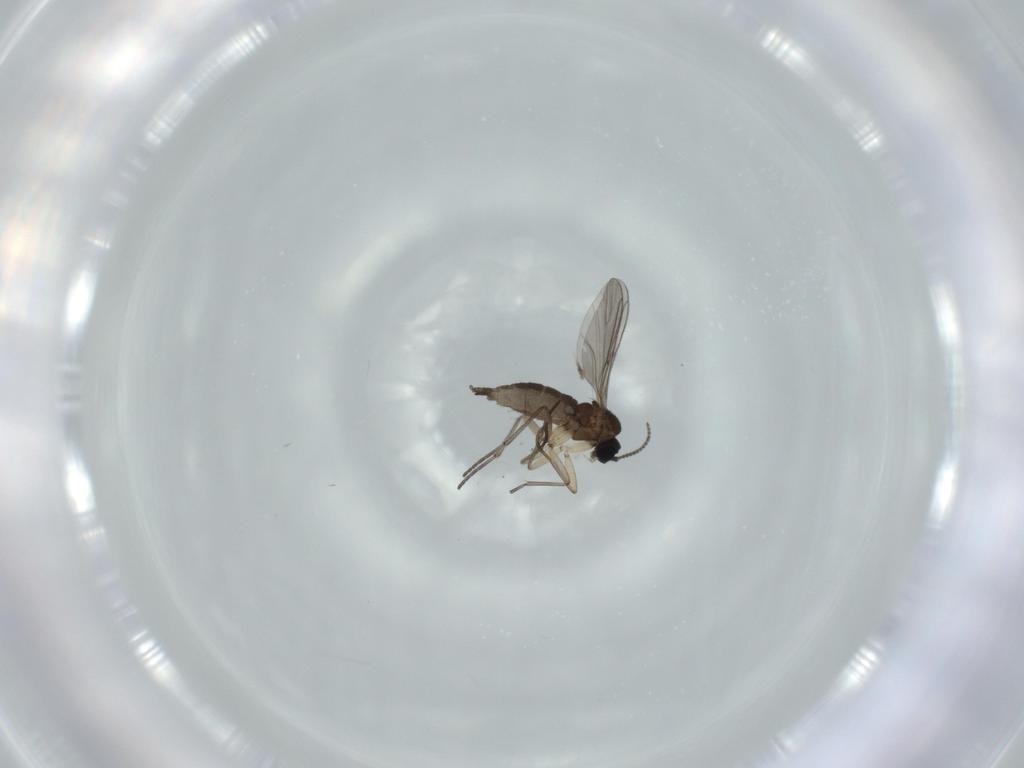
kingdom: Animalia
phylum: Arthropoda
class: Insecta
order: Diptera
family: Sciaridae
